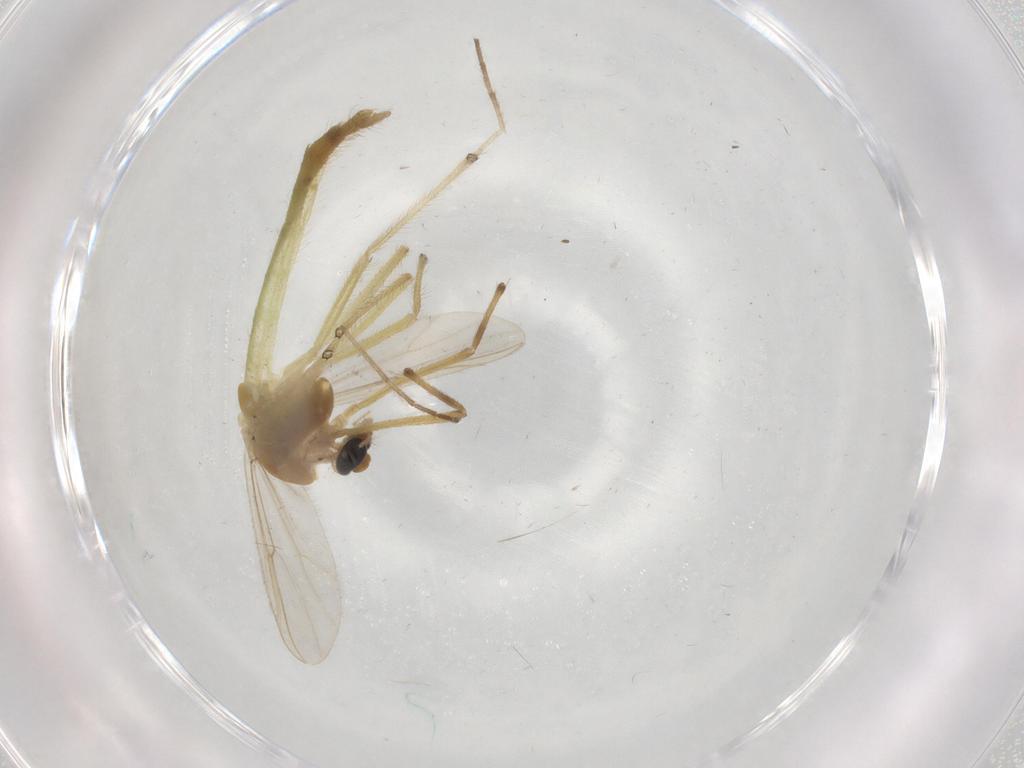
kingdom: Animalia
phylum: Arthropoda
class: Insecta
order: Diptera
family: Chironomidae
